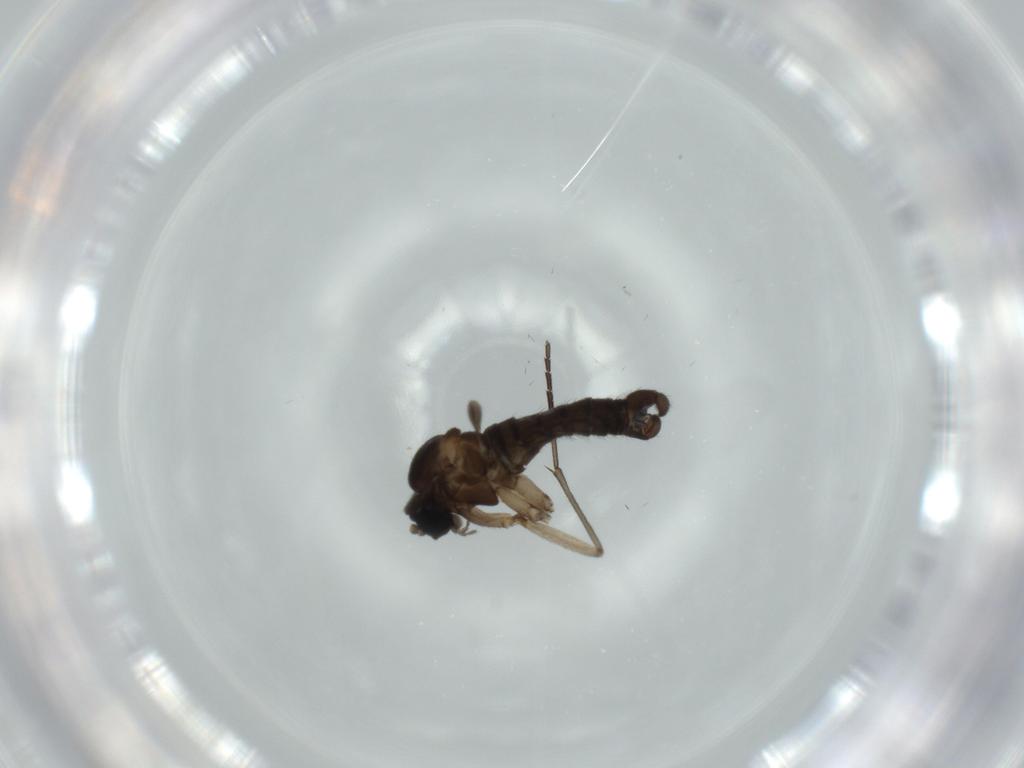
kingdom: Animalia
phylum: Arthropoda
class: Insecta
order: Diptera
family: Sciaridae
